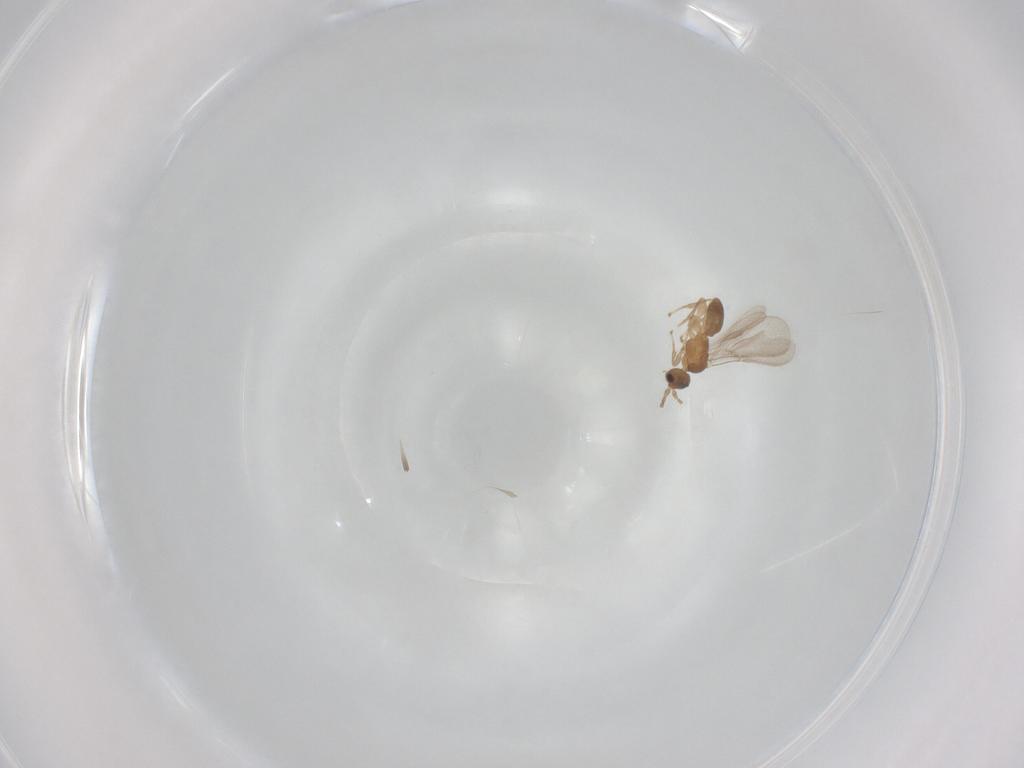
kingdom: Animalia
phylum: Arthropoda
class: Insecta
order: Hymenoptera
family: Ichneumonidae
